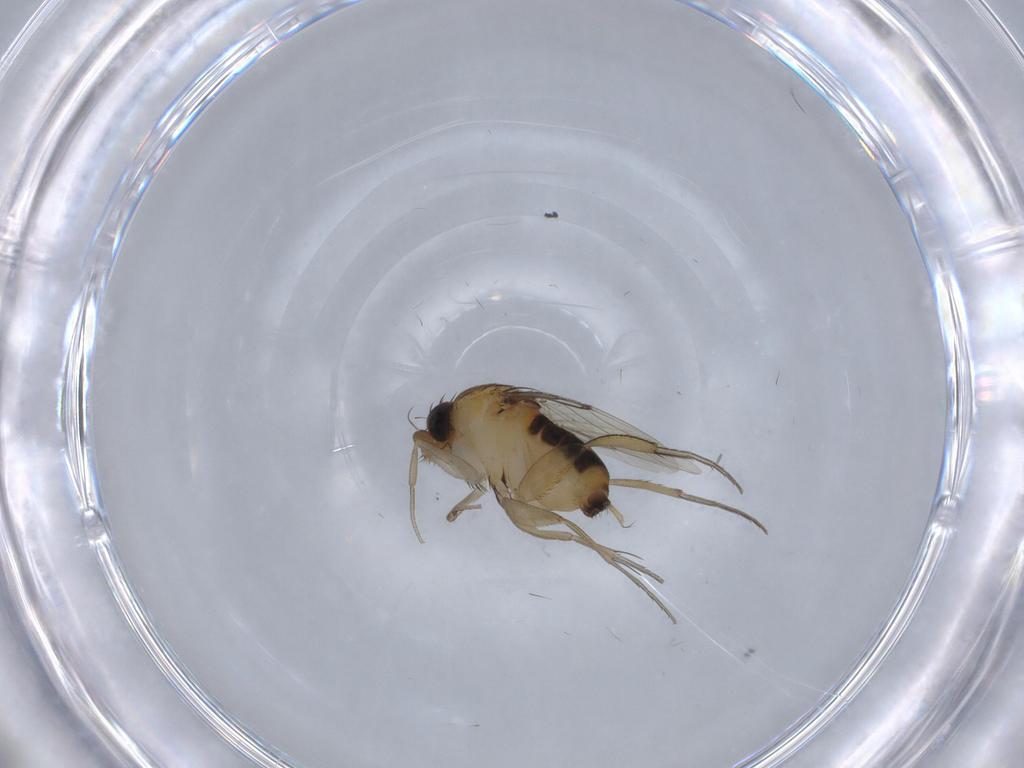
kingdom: Animalia
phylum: Arthropoda
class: Insecta
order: Diptera
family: Phoridae
